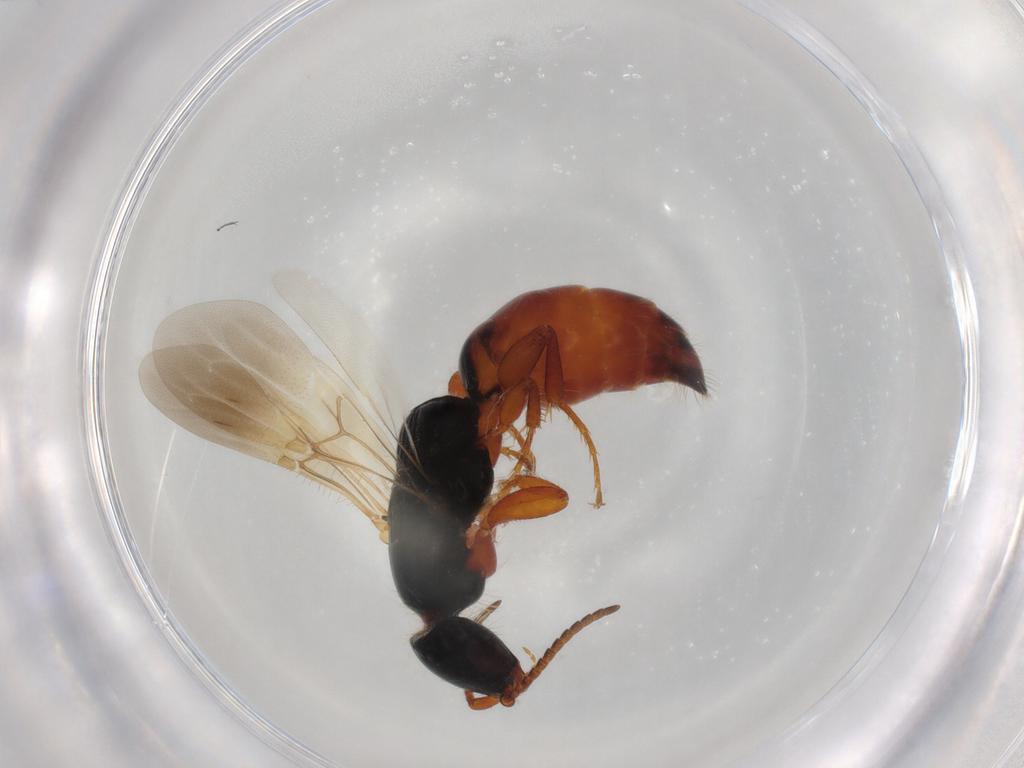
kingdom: Animalia
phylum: Arthropoda
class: Insecta
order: Hymenoptera
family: Bethylidae
